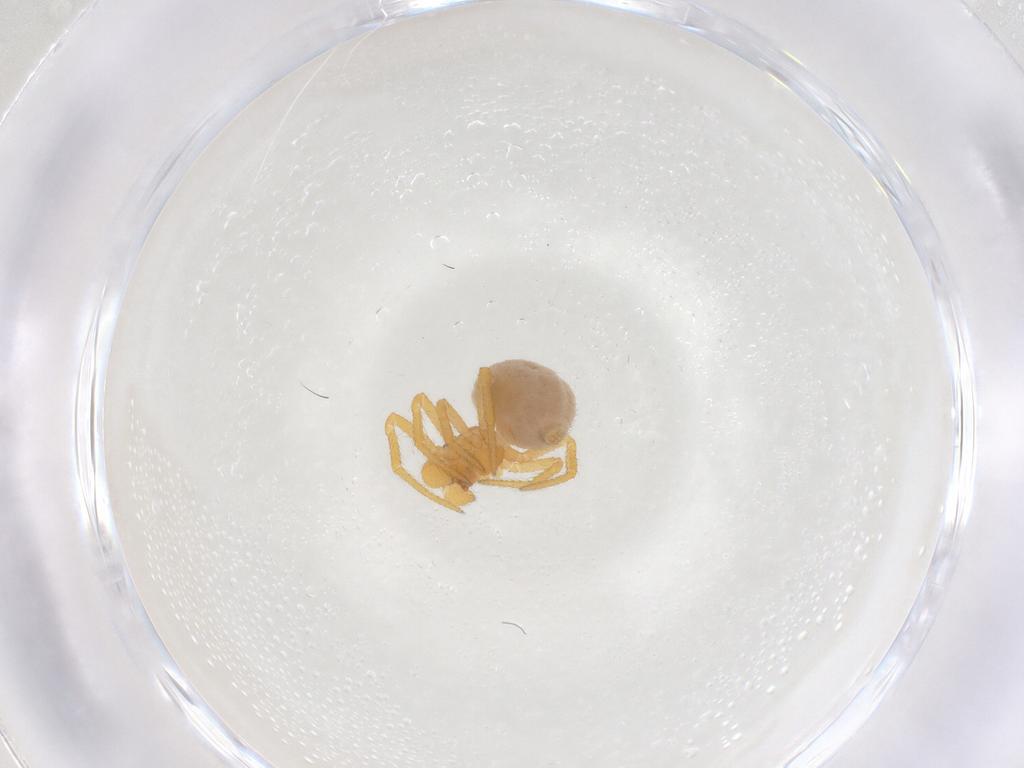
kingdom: Animalia
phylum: Arthropoda
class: Arachnida
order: Araneae
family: Theridiidae
